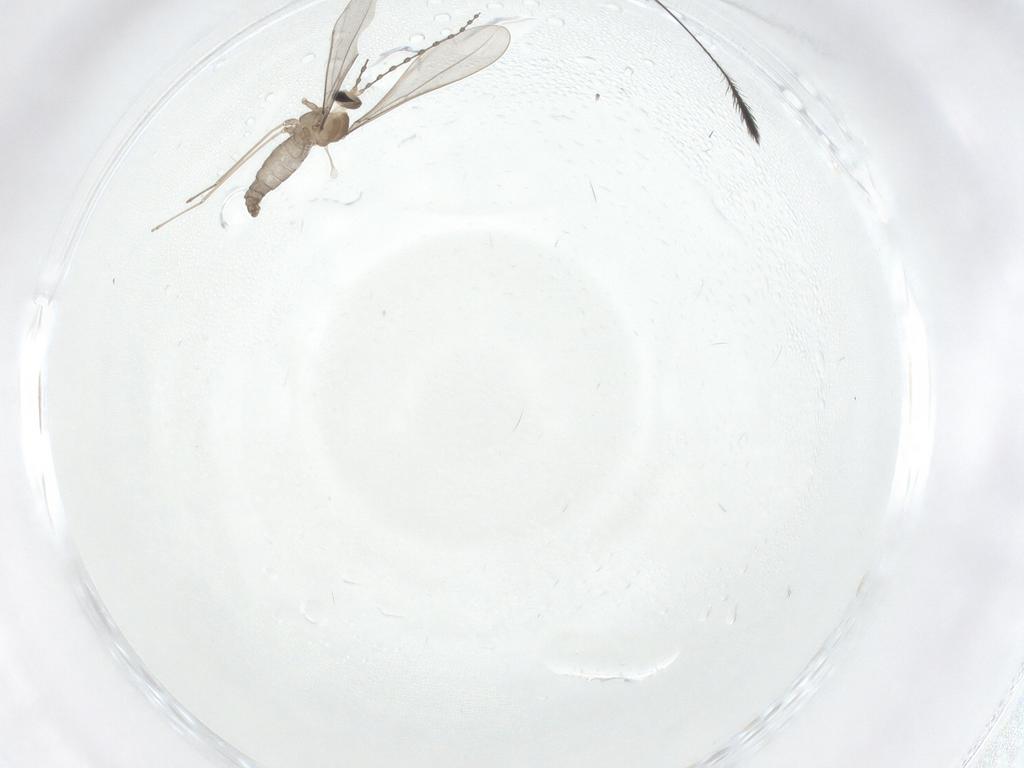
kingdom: Animalia
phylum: Arthropoda
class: Insecta
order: Diptera
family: Cecidomyiidae
